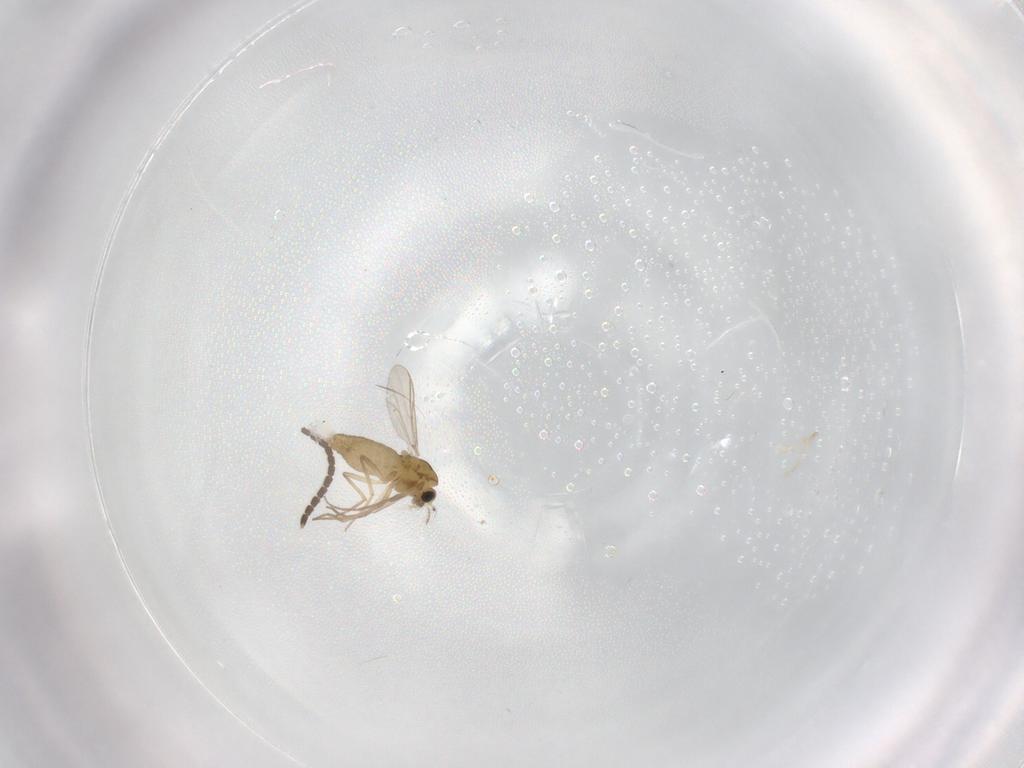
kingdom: Animalia
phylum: Arthropoda
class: Insecta
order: Diptera
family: Chironomidae
